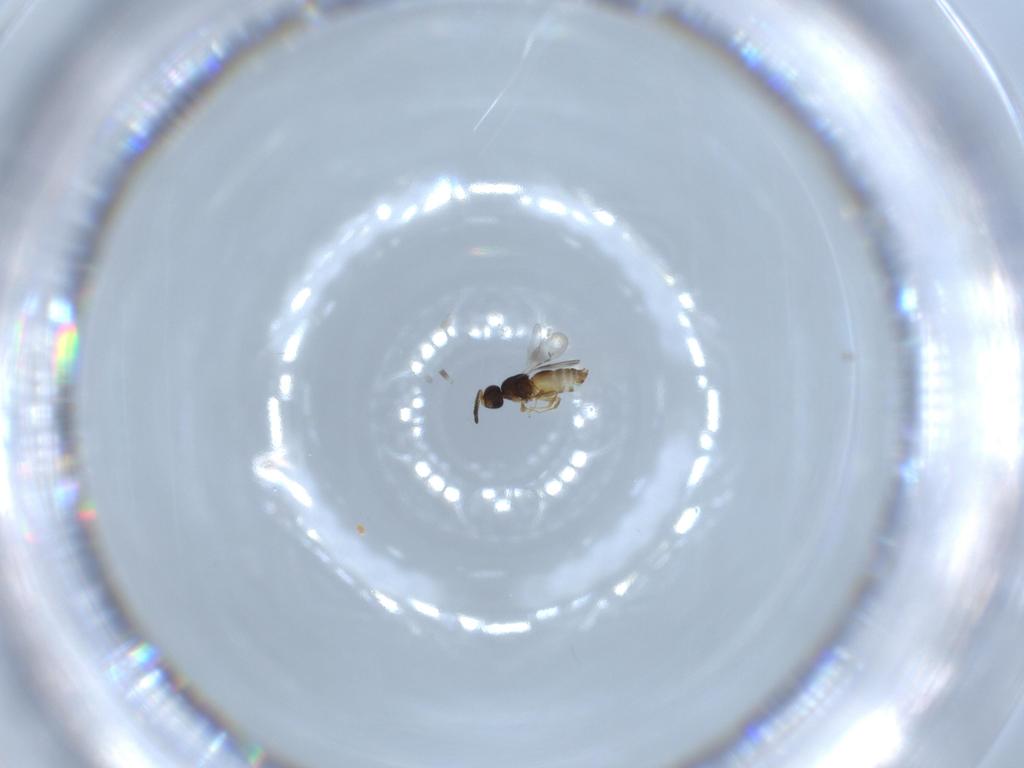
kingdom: Animalia
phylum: Arthropoda
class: Insecta
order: Hymenoptera
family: Scelionidae
